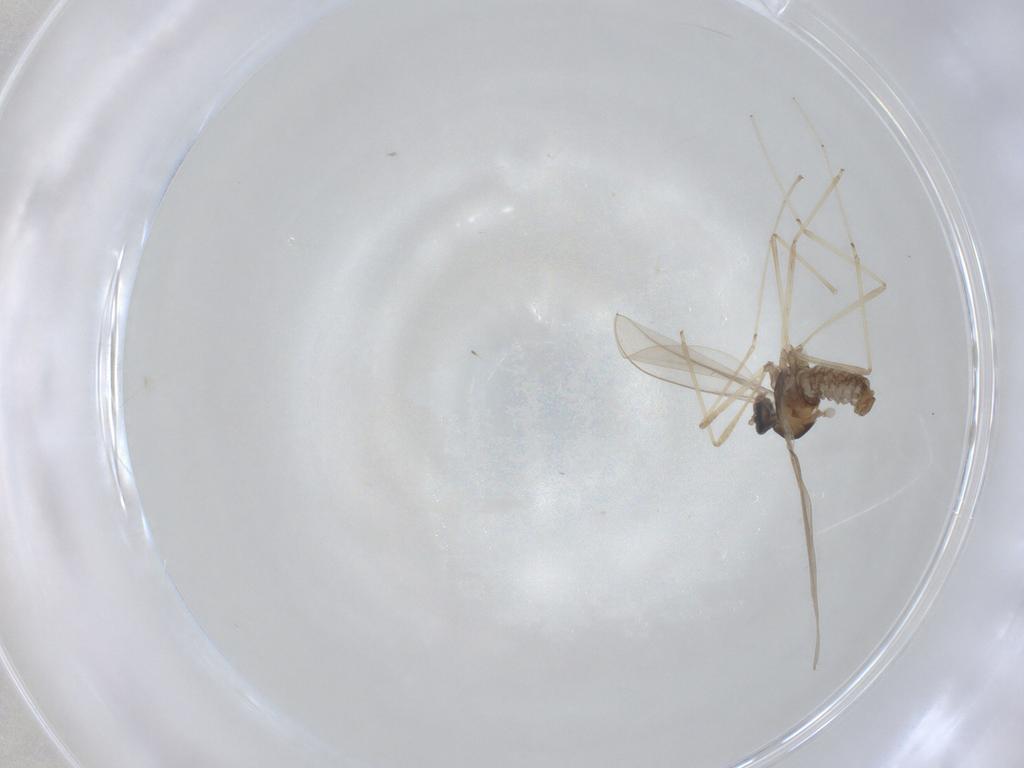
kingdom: Animalia
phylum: Arthropoda
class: Insecta
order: Diptera
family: Cecidomyiidae
